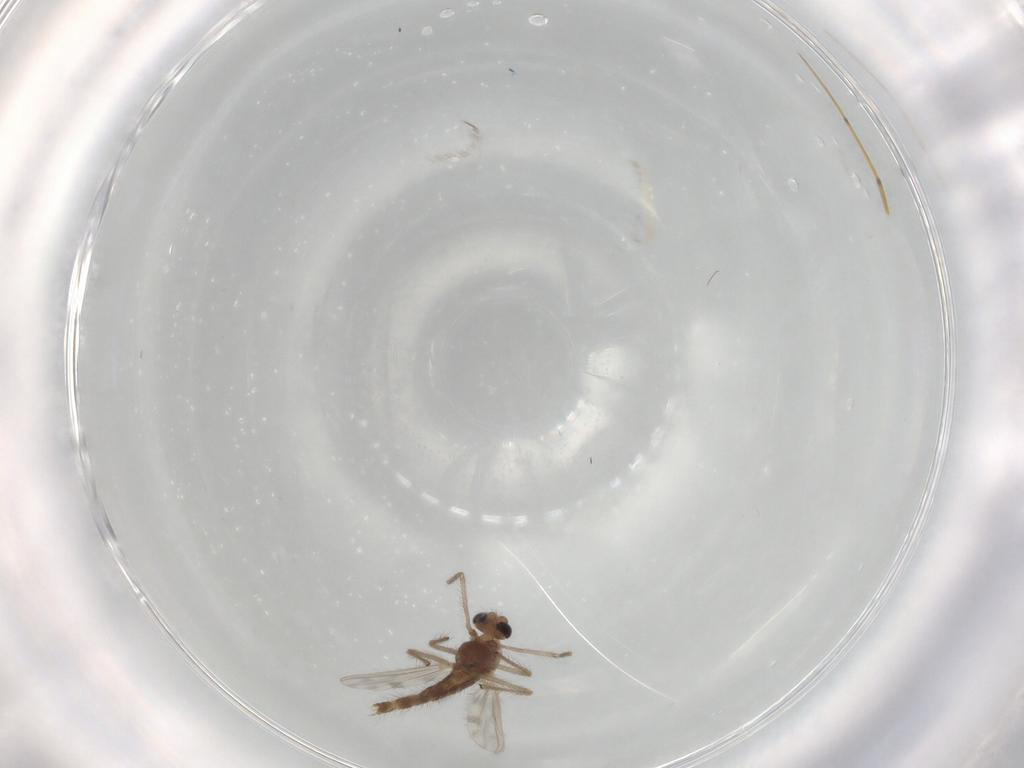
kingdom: Animalia
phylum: Arthropoda
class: Insecta
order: Diptera
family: Chironomidae
